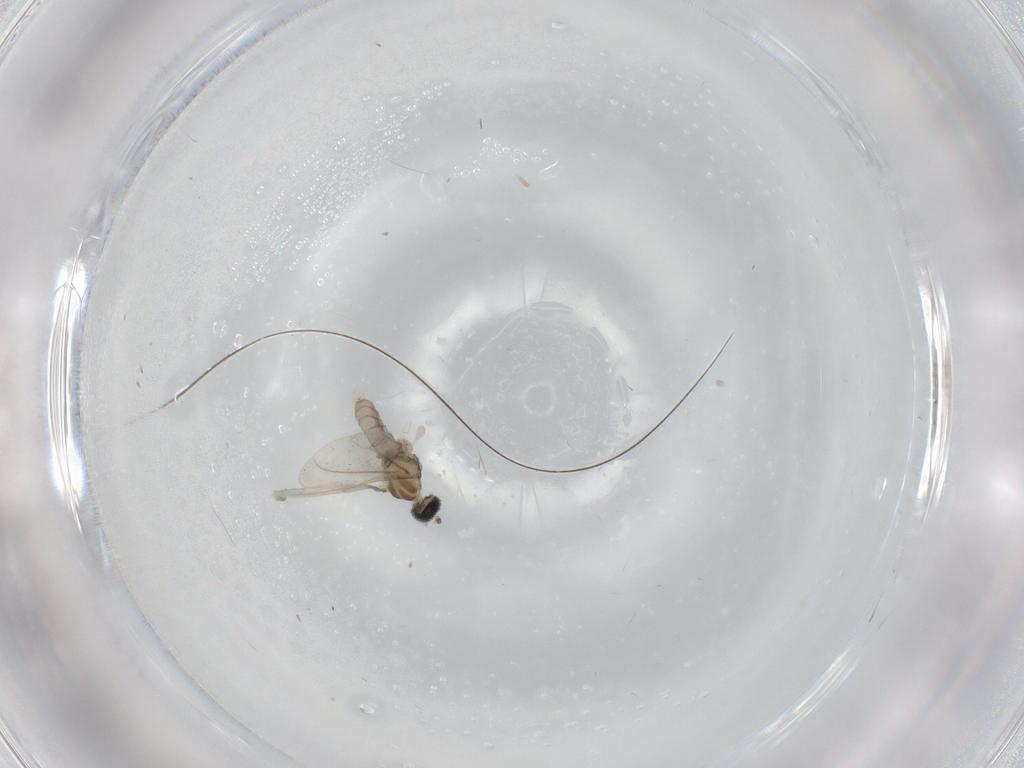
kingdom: Animalia
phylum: Arthropoda
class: Insecta
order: Diptera
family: Cecidomyiidae
